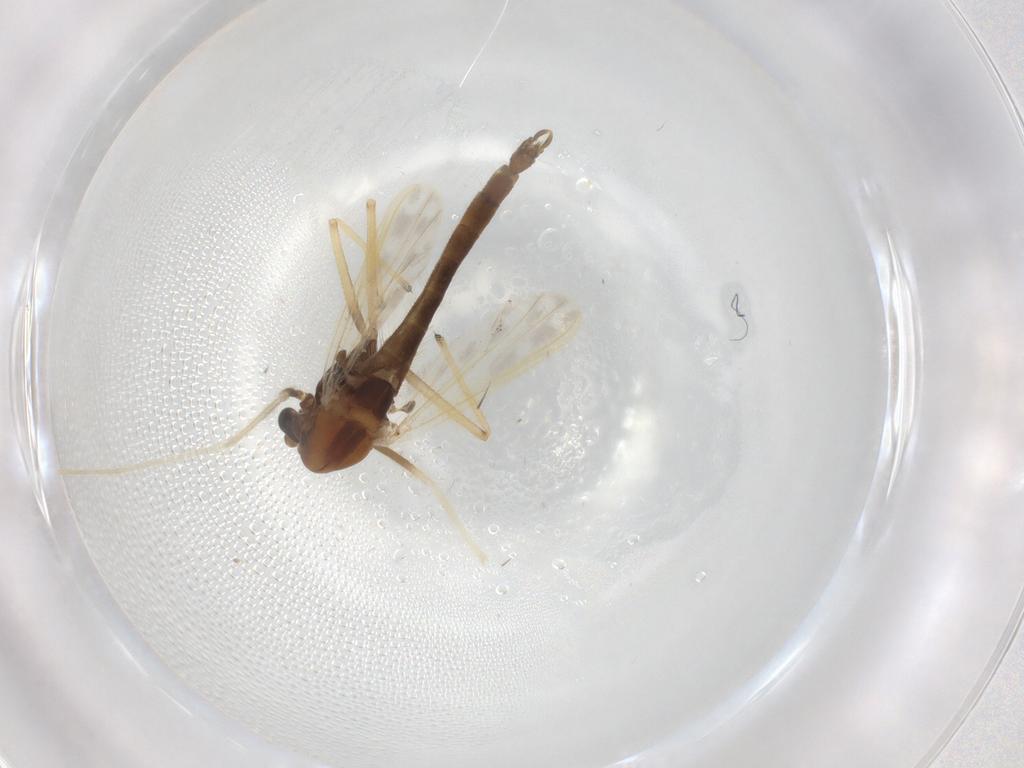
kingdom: Animalia
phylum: Arthropoda
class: Insecta
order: Diptera
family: Chironomidae
